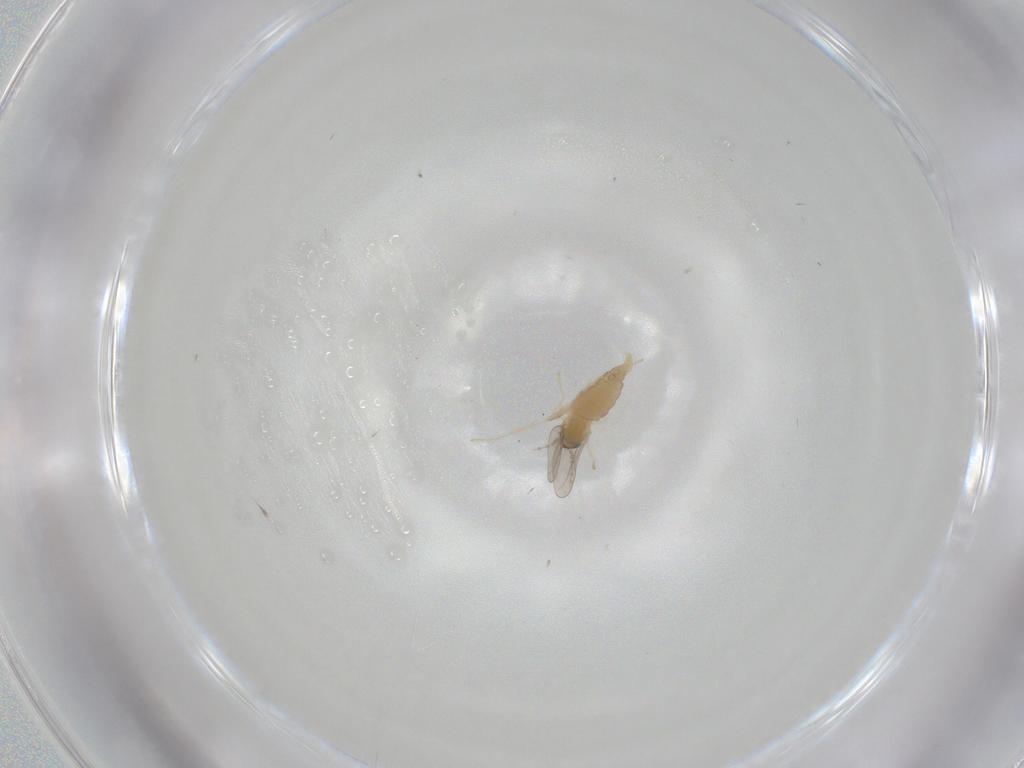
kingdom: Animalia
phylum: Arthropoda
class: Insecta
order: Diptera
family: Cecidomyiidae
